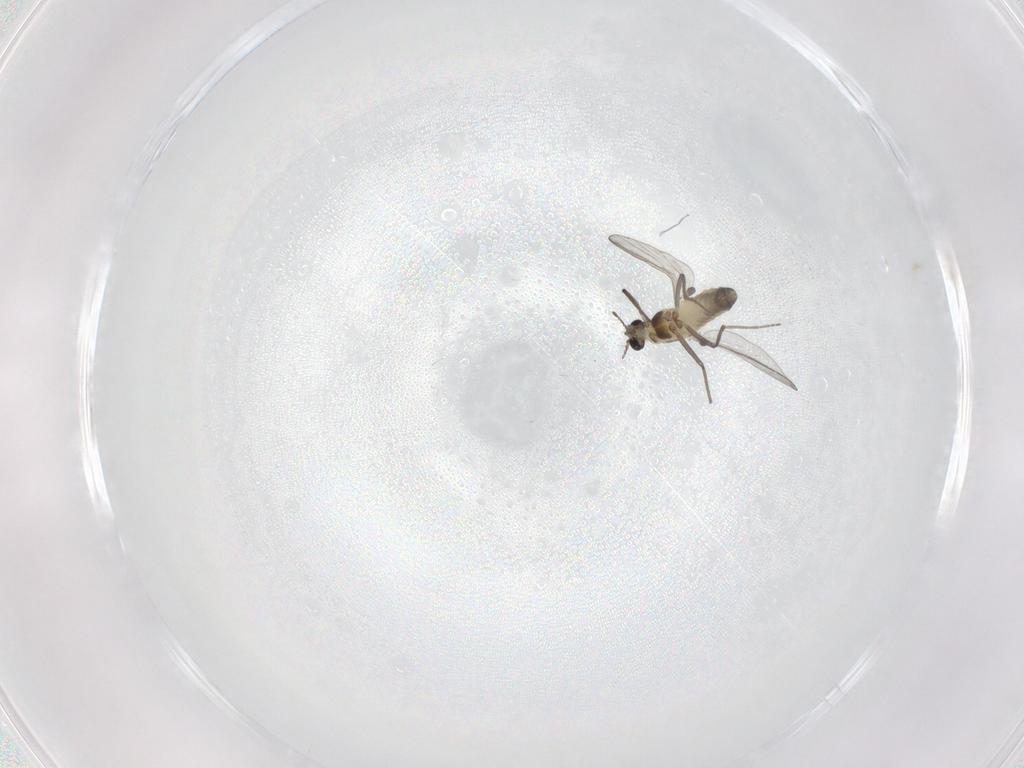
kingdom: Animalia
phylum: Arthropoda
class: Insecta
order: Diptera
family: Chironomidae
